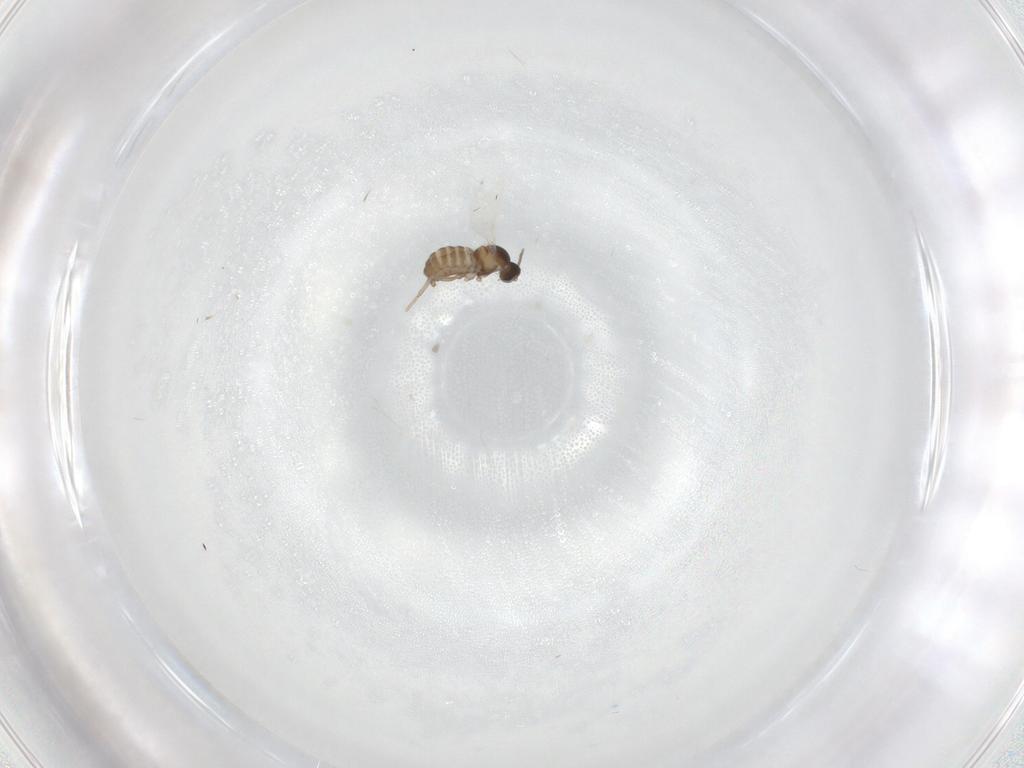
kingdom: Animalia
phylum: Arthropoda
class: Insecta
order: Diptera
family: Cecidomyiidae
